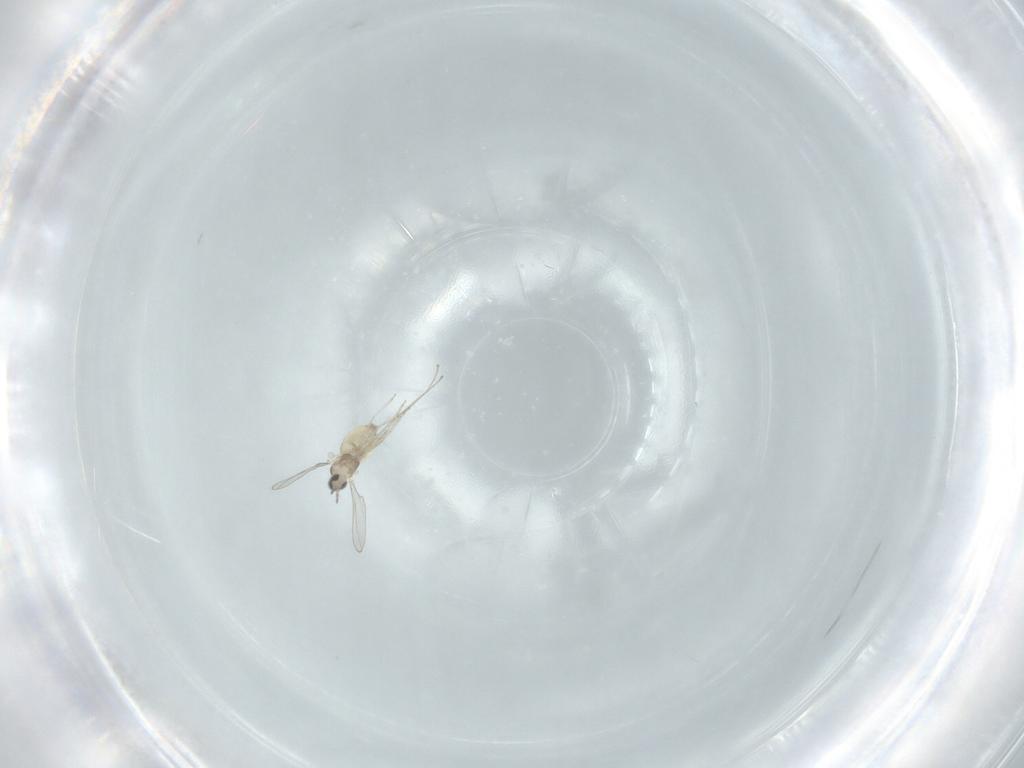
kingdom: Animalia
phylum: Arthropoda
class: Insecta
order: Diptera
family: Cecidomyiidae
